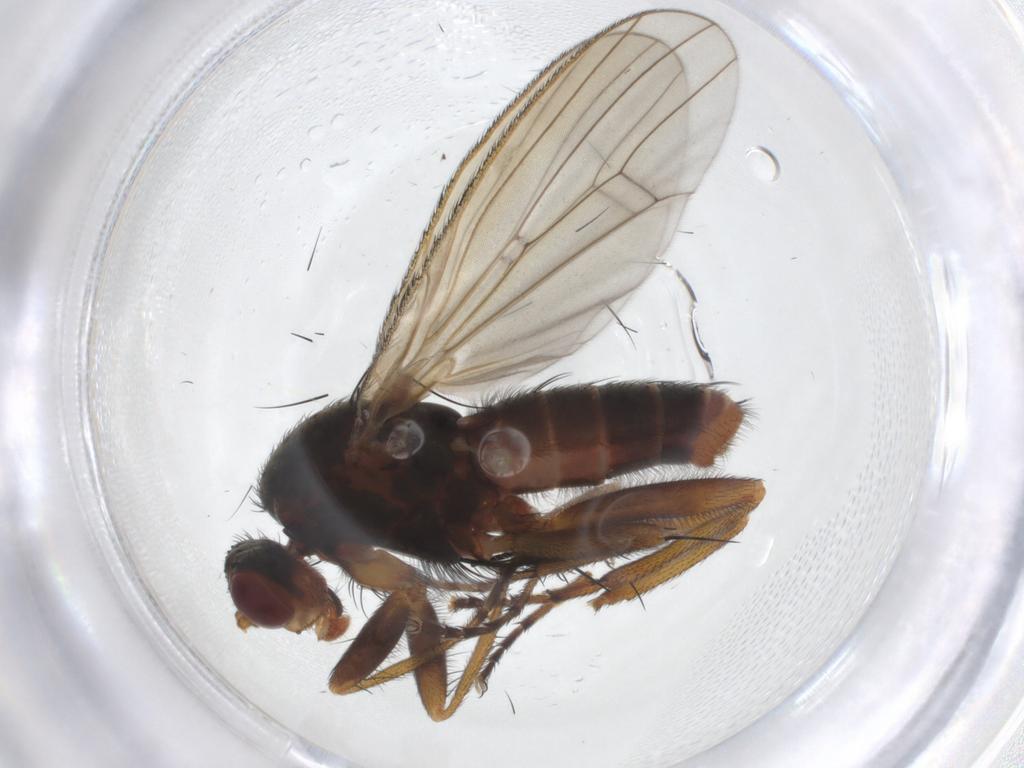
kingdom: Animalia
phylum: Arthropoda
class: Insecta
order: Diptera
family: Heleomyzidae
